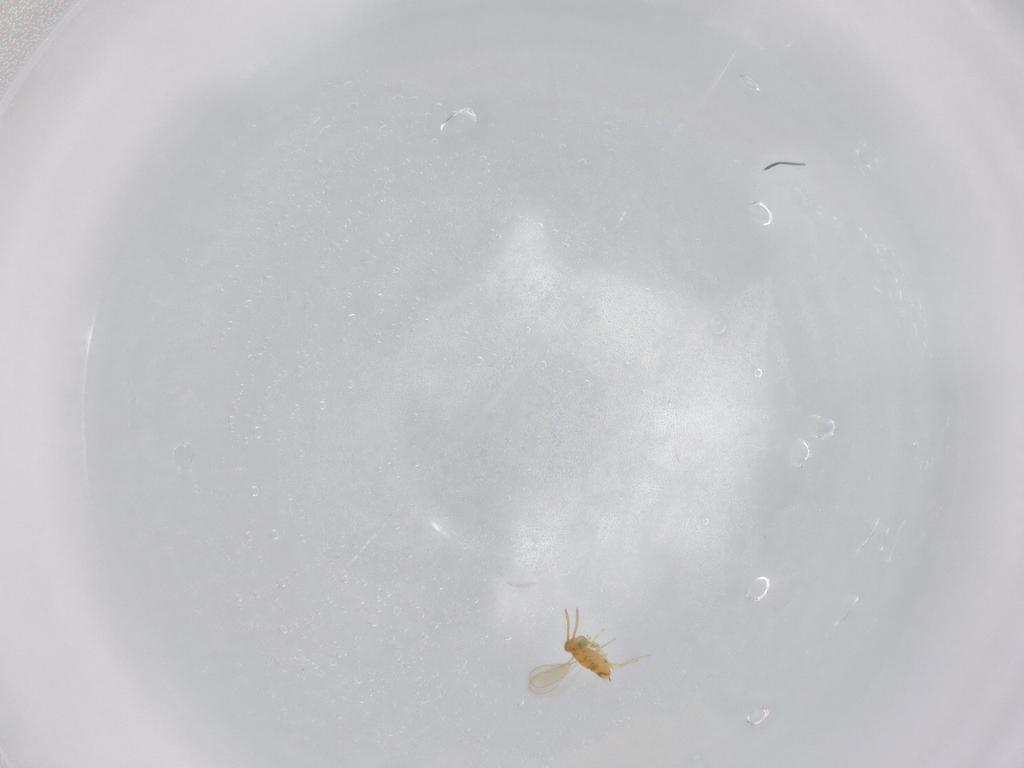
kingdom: Animalia
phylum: Arthropoda
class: Insecta
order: Hymenoptera
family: Aphelinidae
